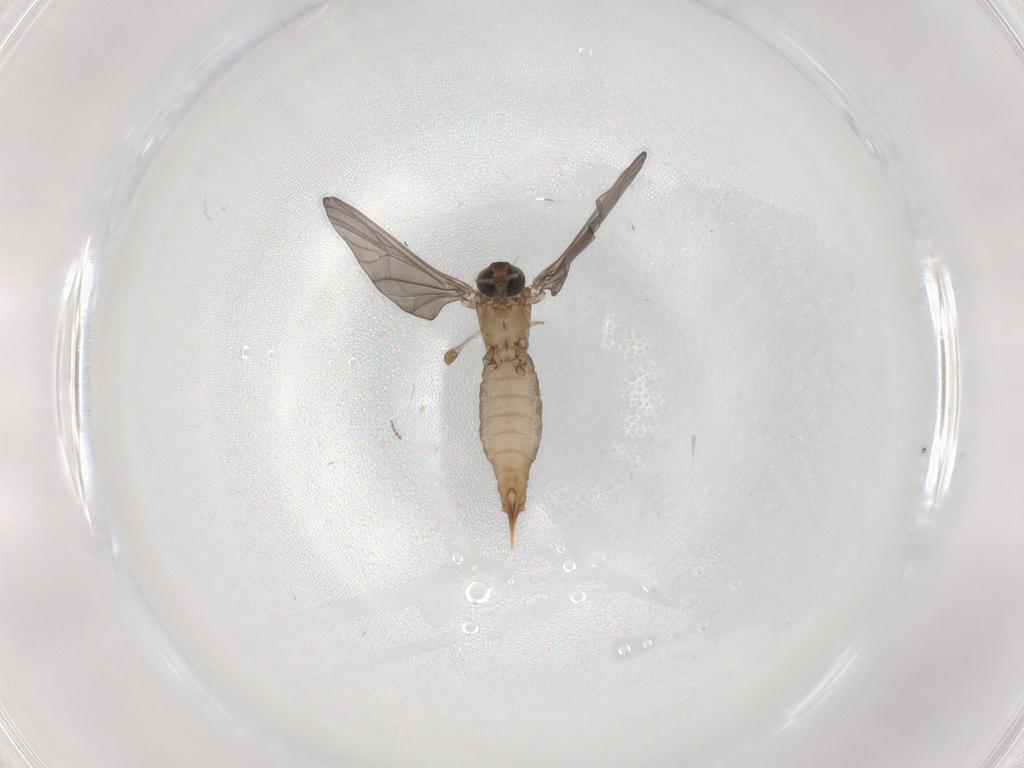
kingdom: Animalia
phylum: Arthropoda
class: Insecta
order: Diptera
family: Limoniidae
